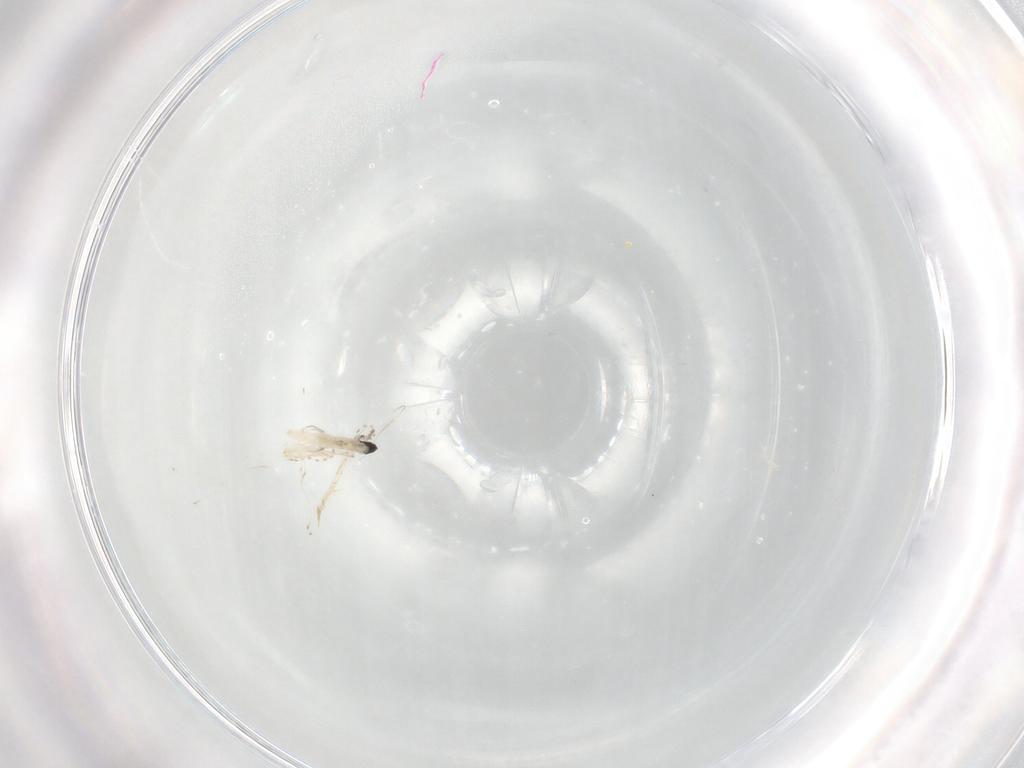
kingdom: Animalia
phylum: Arthropoda
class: Insecta
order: Diptera
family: Cecidomyiidae
